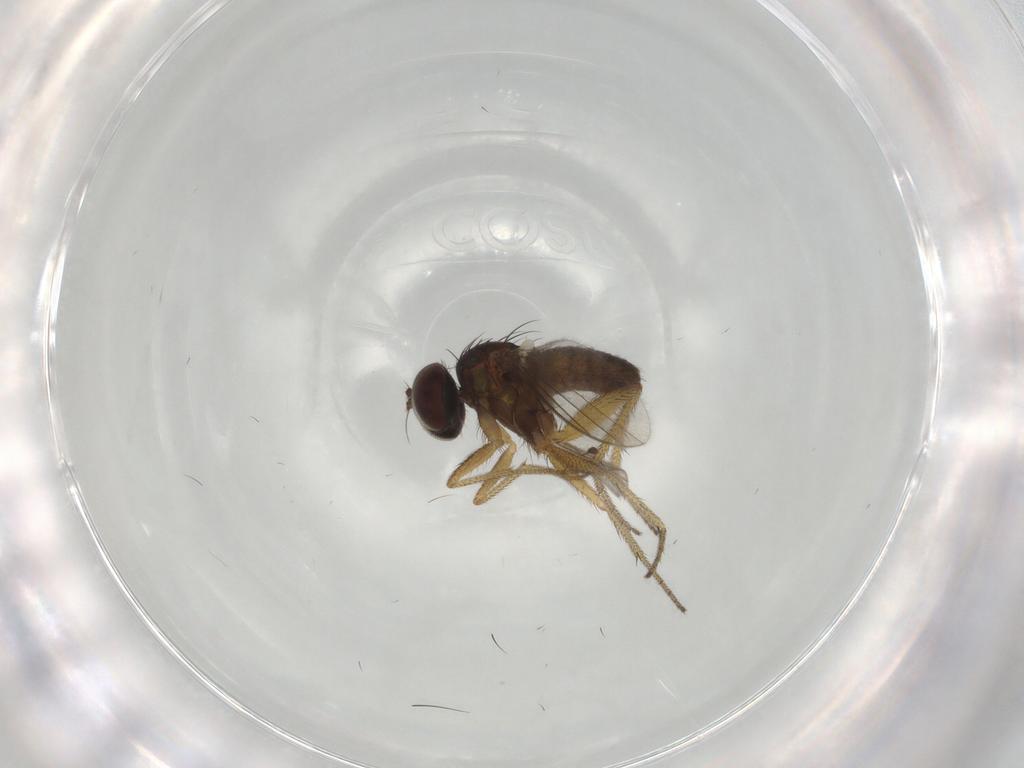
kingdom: Animalia
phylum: Arthropoda
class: Insecta
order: Diptera
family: Dolichopodidae
